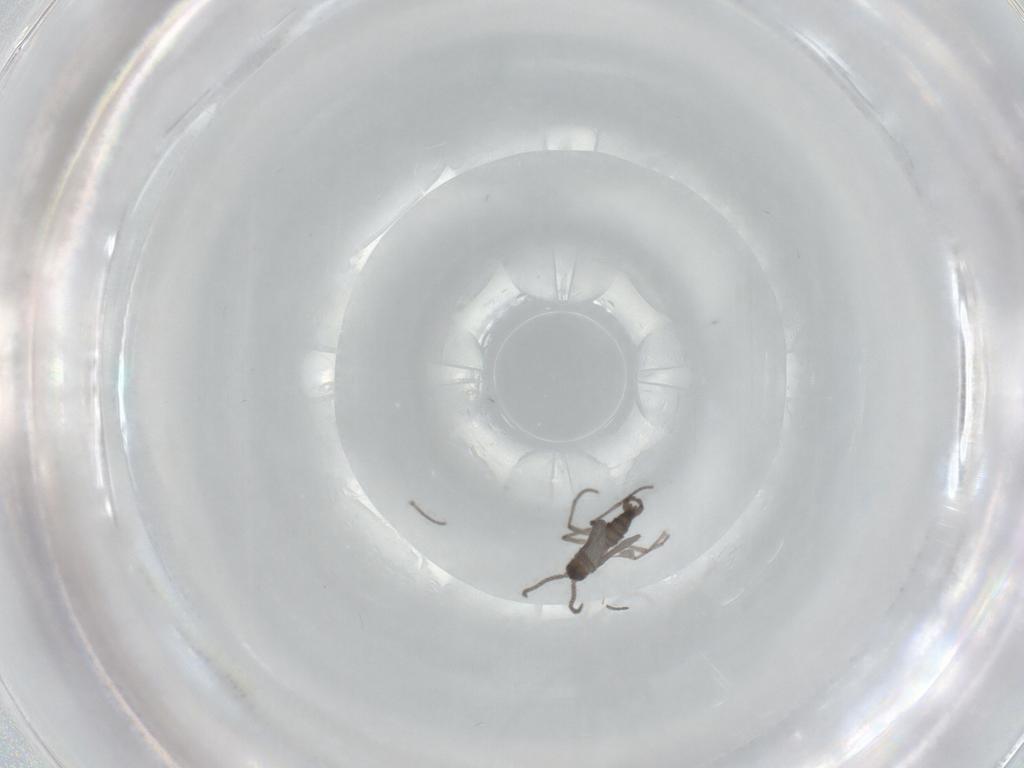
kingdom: Animalia
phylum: Arthropoda
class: Insecta
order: Diptera
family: Sciaridae
